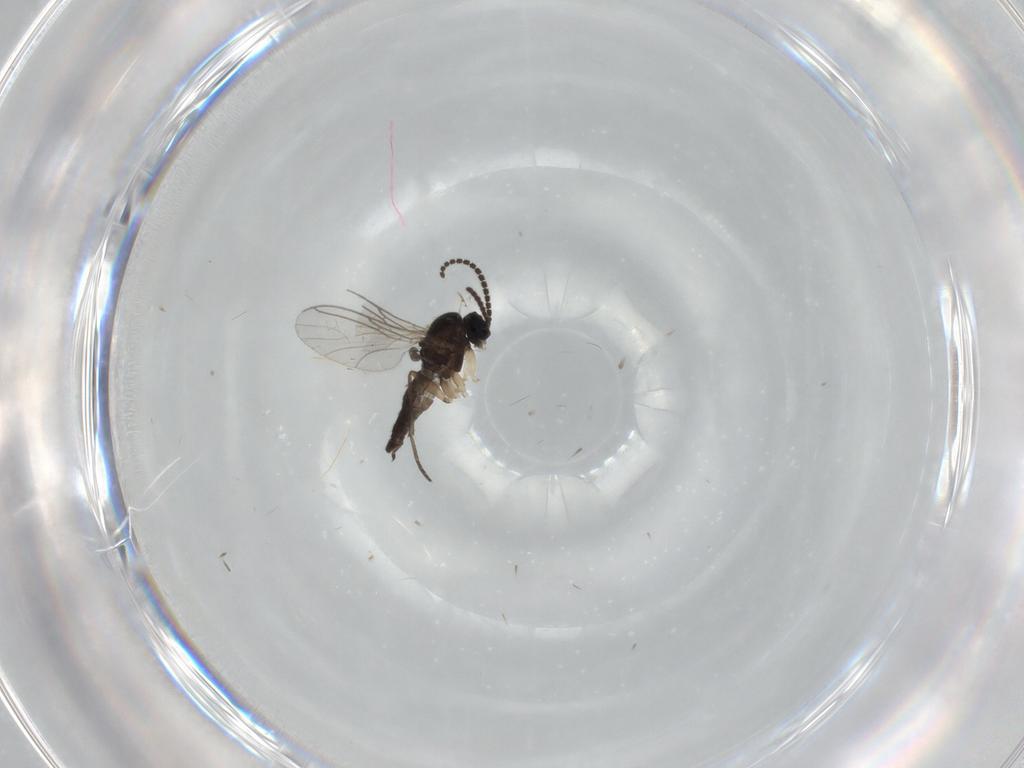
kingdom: Animalia
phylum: Arthropoda
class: Insecta
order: Diptera
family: Sciaridae
